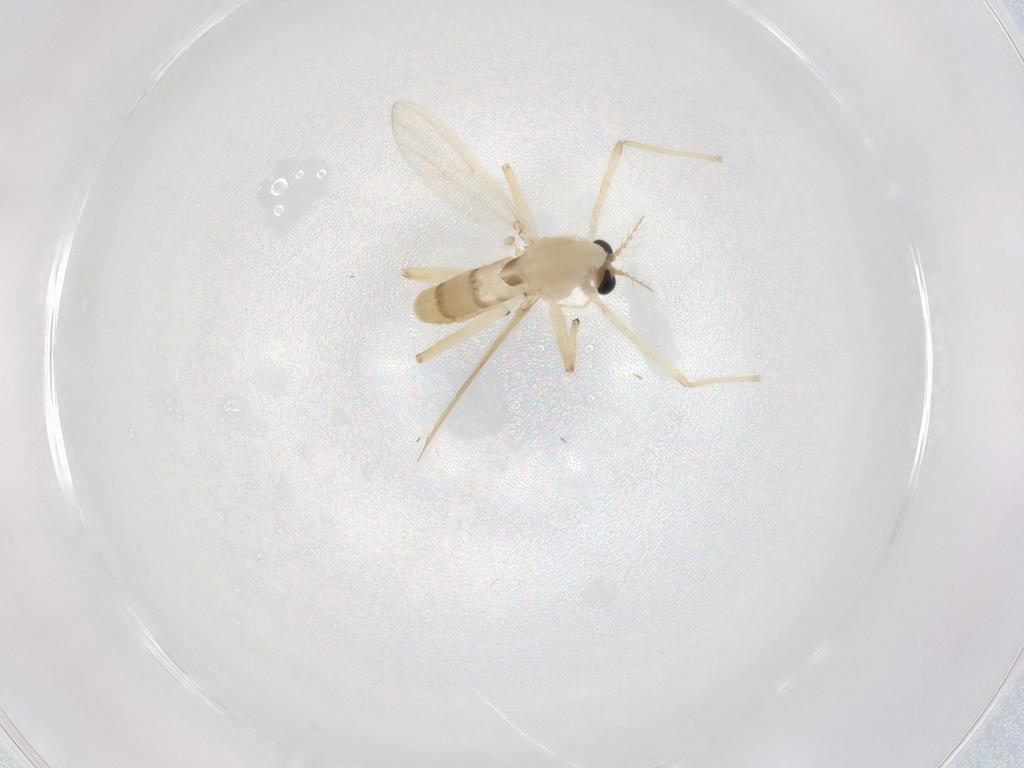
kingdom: Animalia
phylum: Arthropoda
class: Insecta
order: Diptera
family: Chironomidae
